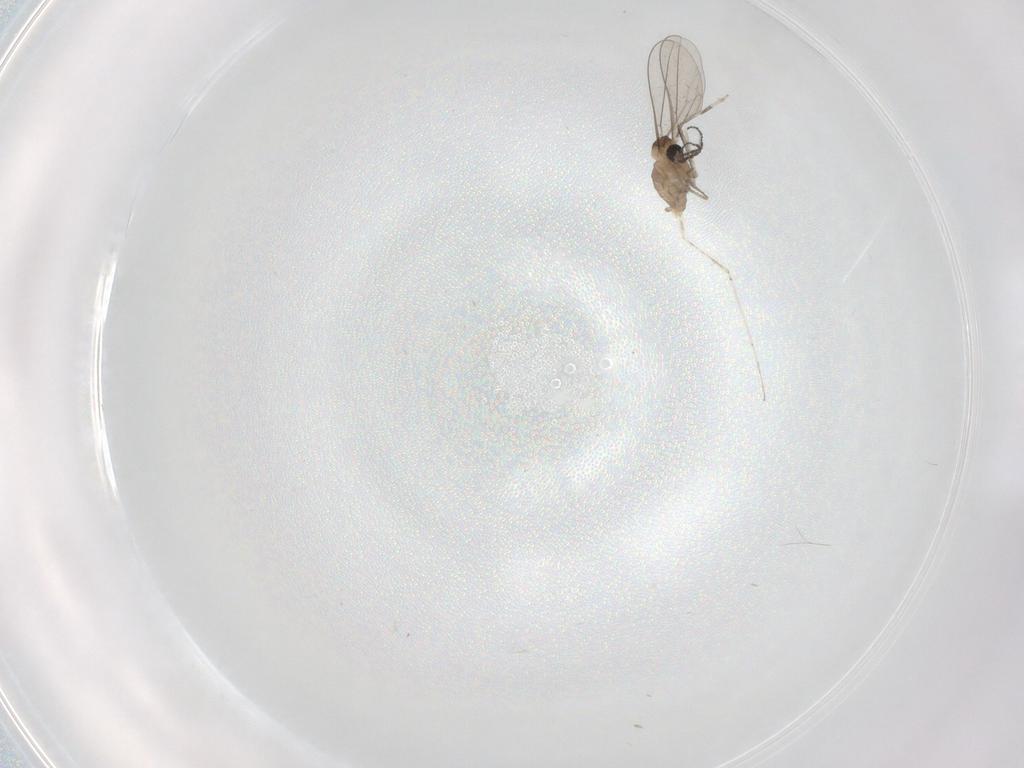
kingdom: Animalia
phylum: Arthropoda
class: Insecta
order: Diptera
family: Cecidomyiidae
